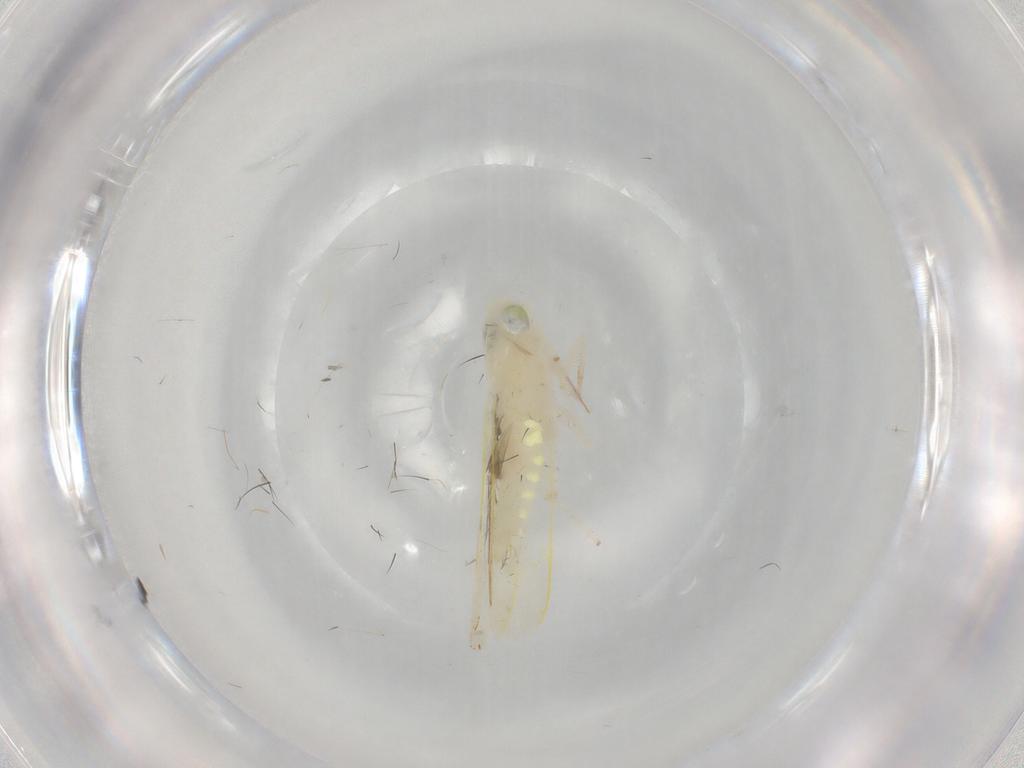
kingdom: Animalia
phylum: Arthropoda
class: Insecta
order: Hemiptera
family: Cicadellidae
